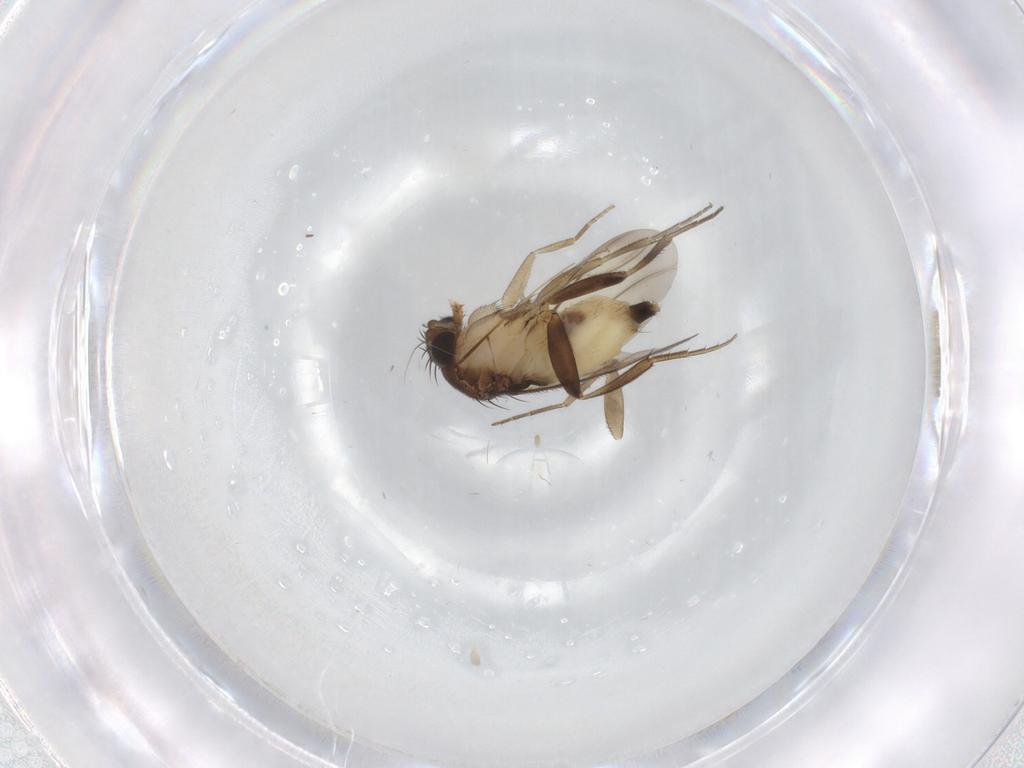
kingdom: Animalia
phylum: Arthropoda
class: Insecta
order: Diptera
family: Phoridae
